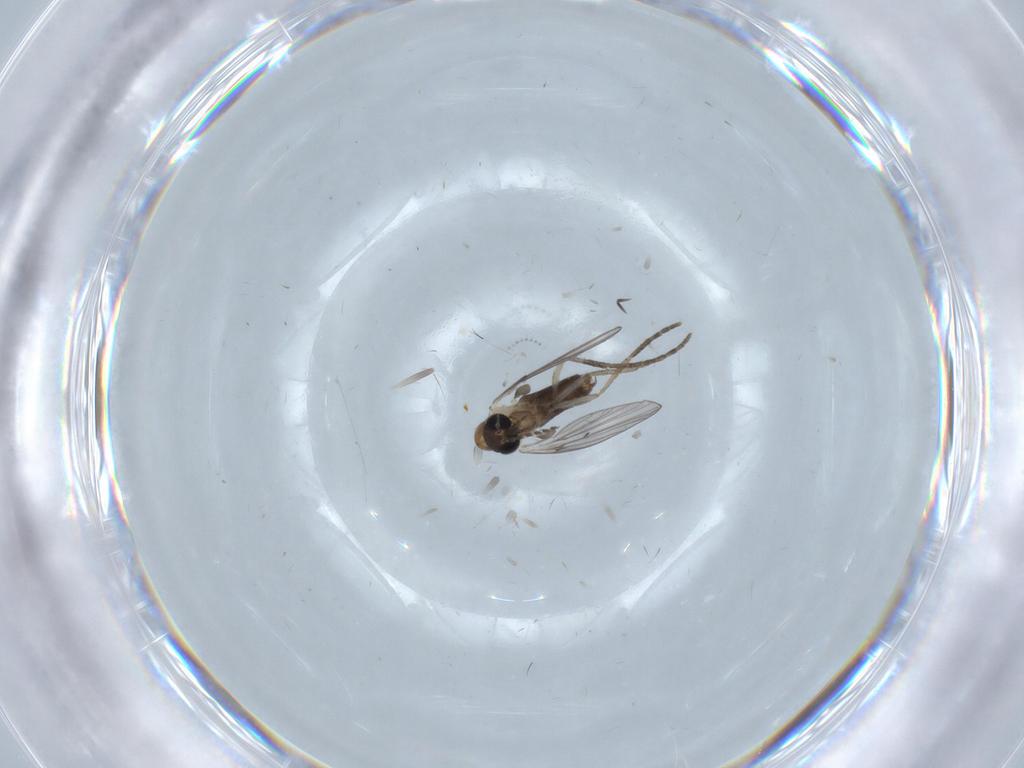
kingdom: Animalia
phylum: Arthropoda
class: Insecta
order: Diptera
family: Psychodidae
